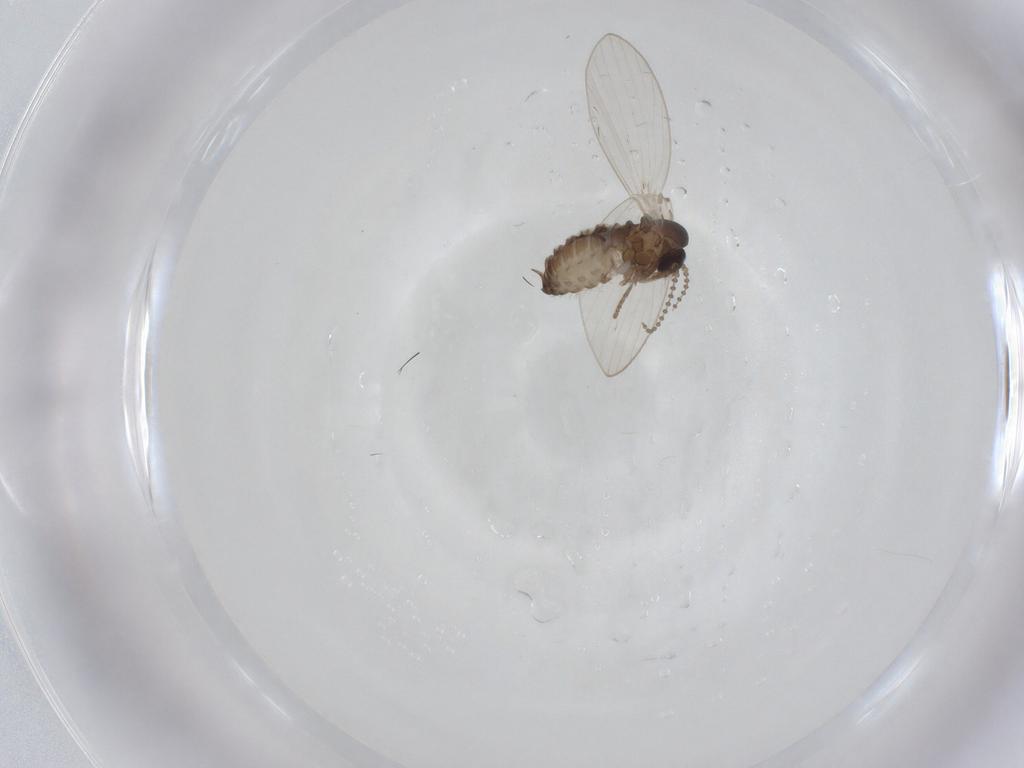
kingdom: Animalia
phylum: Arthropoda
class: Insecta
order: Diptera
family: Psychodidae
